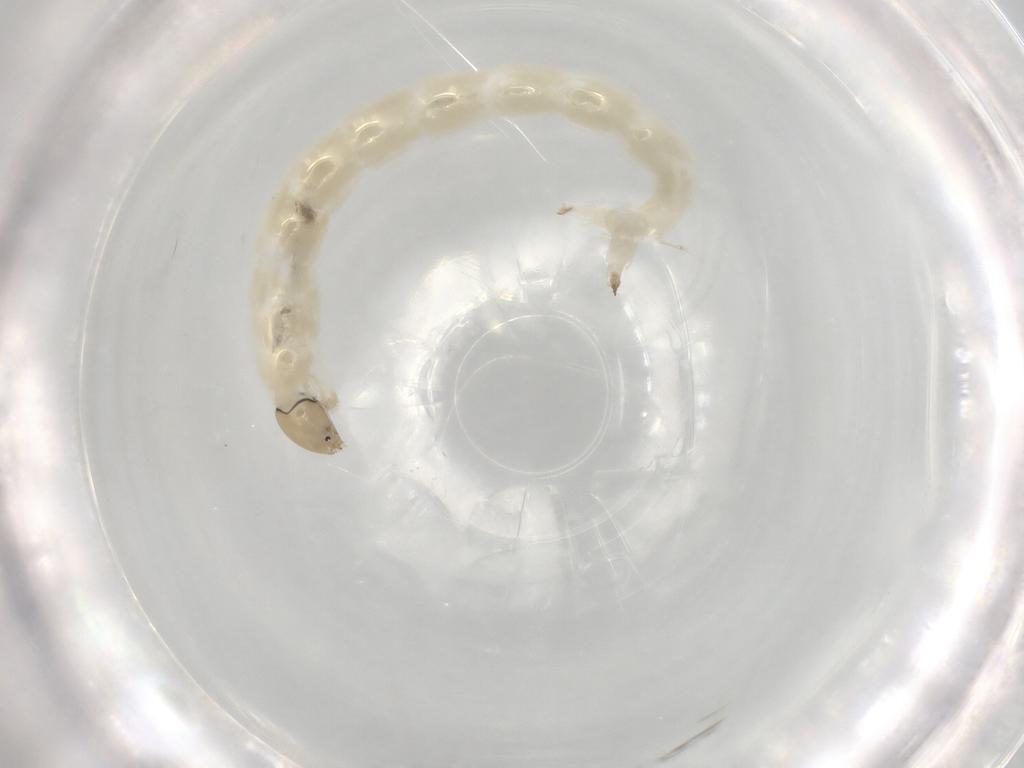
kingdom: Animalia
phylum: Arthropoda
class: Insecta
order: Diptera
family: Chironomidae
